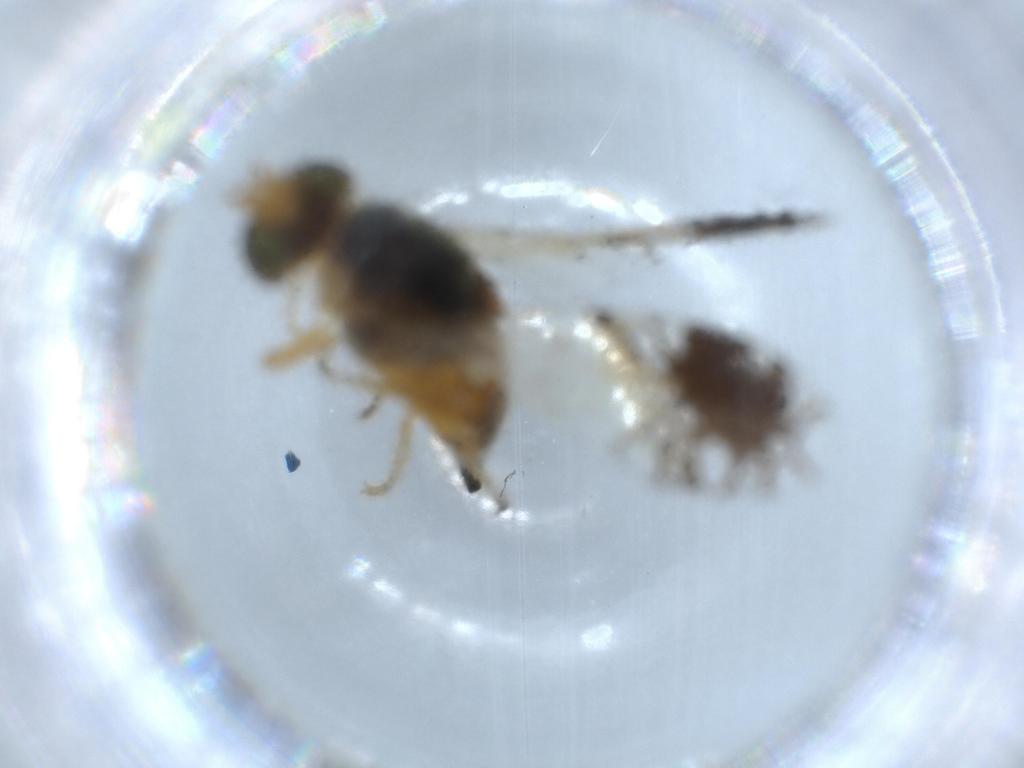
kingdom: Animalia
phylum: Arthropoda
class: Insecta
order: Diptera
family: Tephritidae
